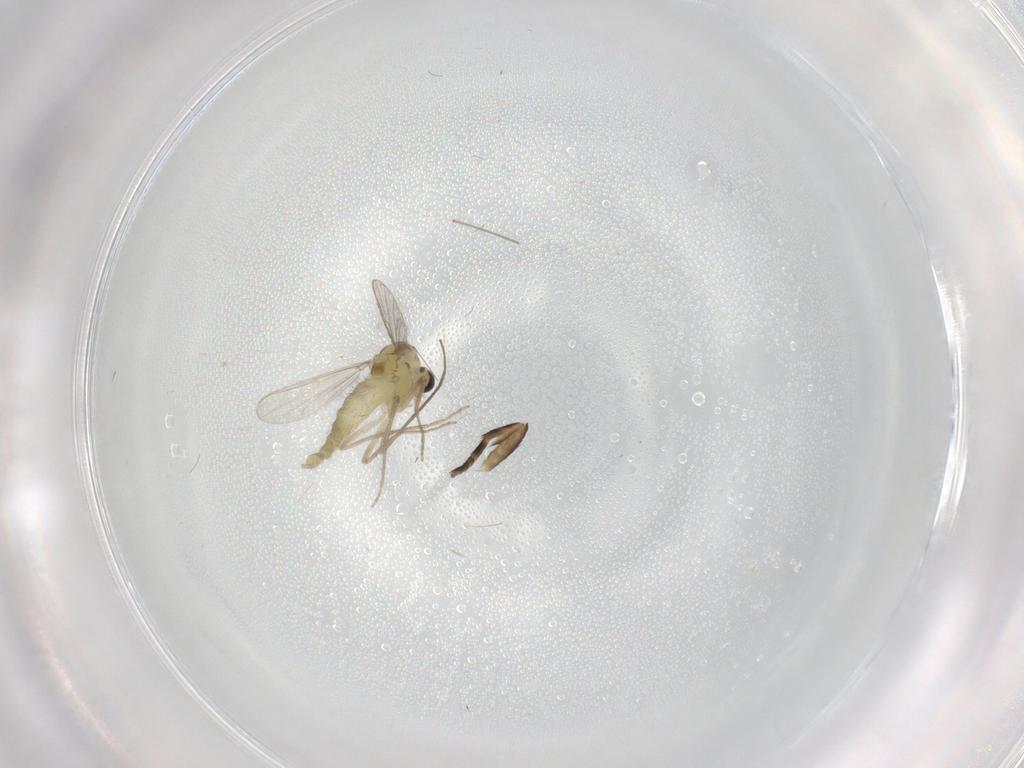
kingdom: Animalia
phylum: Arthropoda
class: Insecta
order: Diptera
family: Chironomidae
